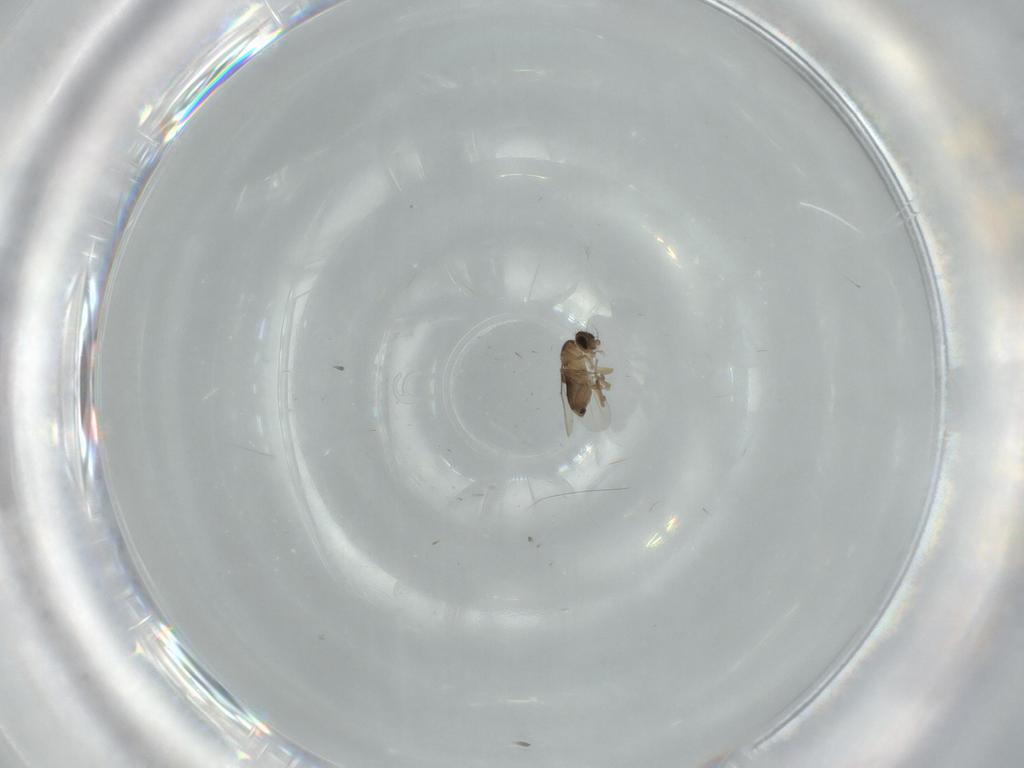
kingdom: Animalia
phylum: Arthropoda
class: Insecta
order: Diptera
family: Phoridae
